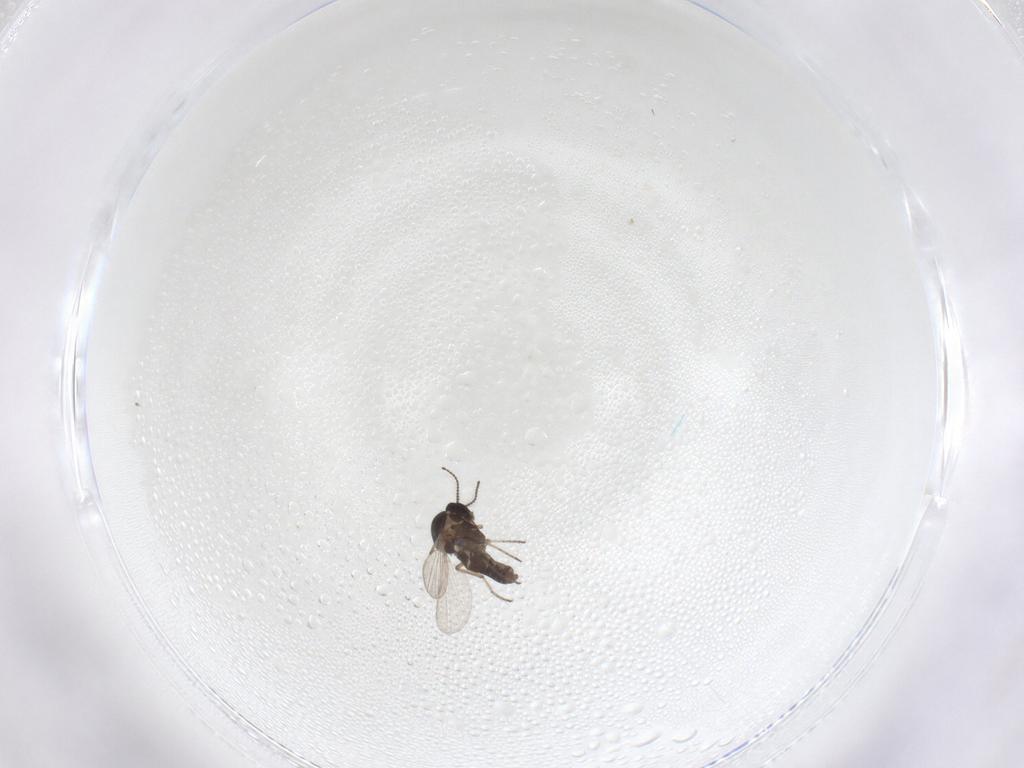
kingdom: Animalia
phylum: Arthropoda
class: Insecta
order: Diptera
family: Ceratopogonidae
